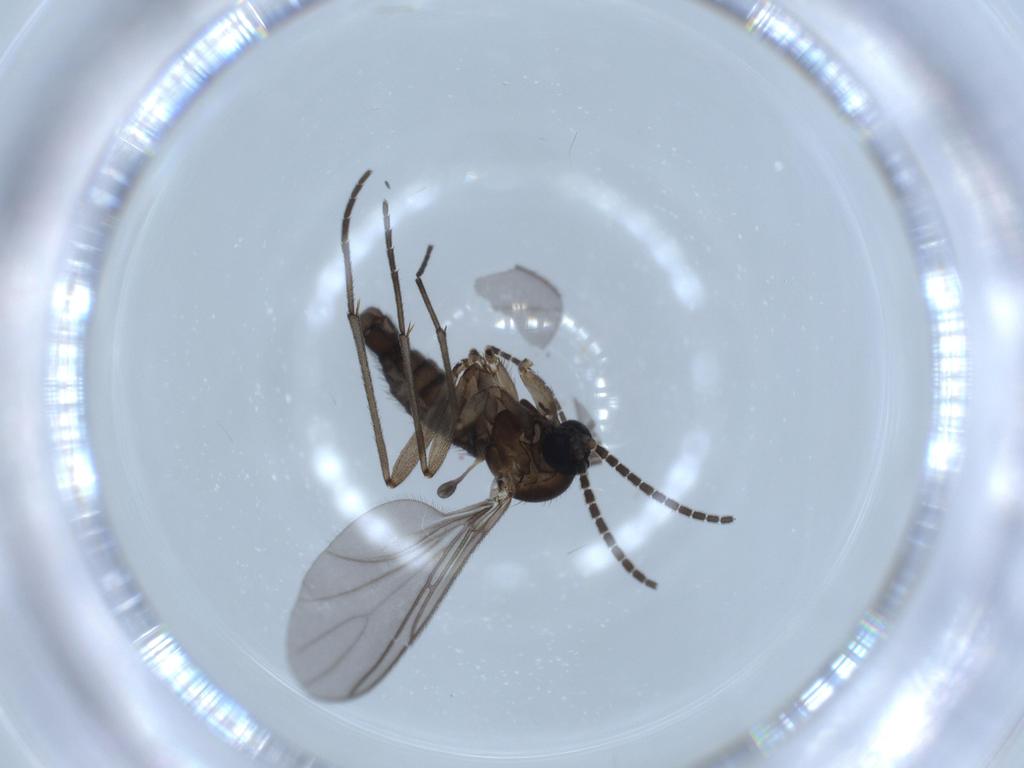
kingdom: Animalia
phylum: Arthropoda
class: Insecta
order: Diptera
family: Sciaridae
